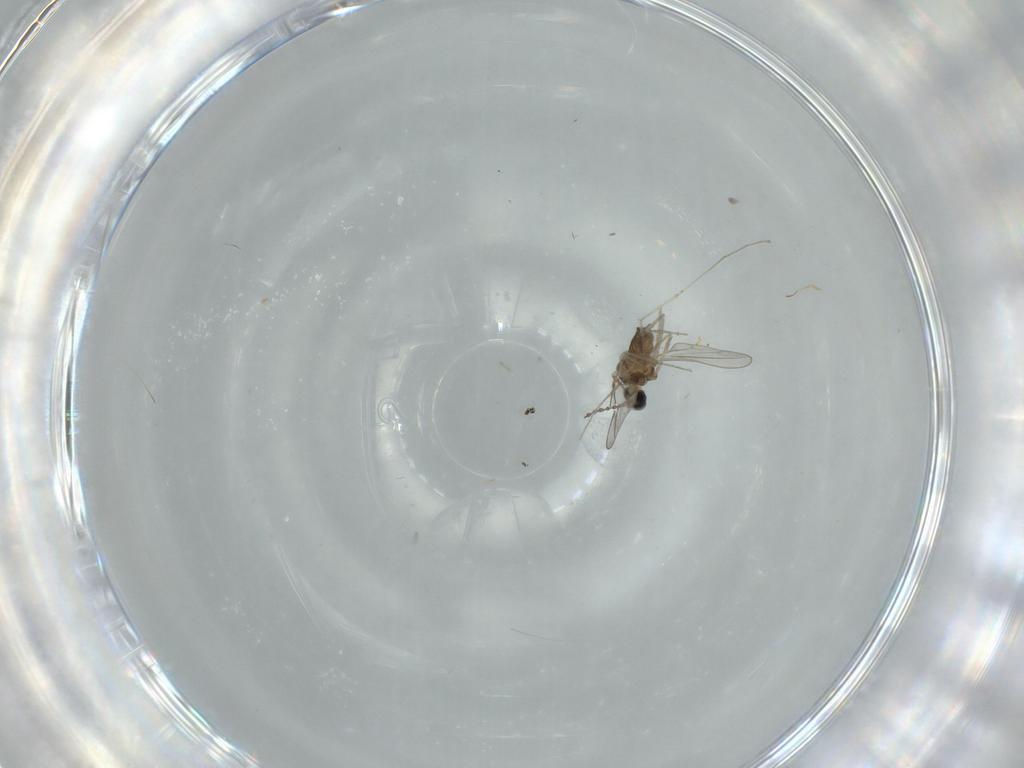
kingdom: Animalia
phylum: Arthropoda
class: Insecta
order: Diptera
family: Cecidomyiidae
